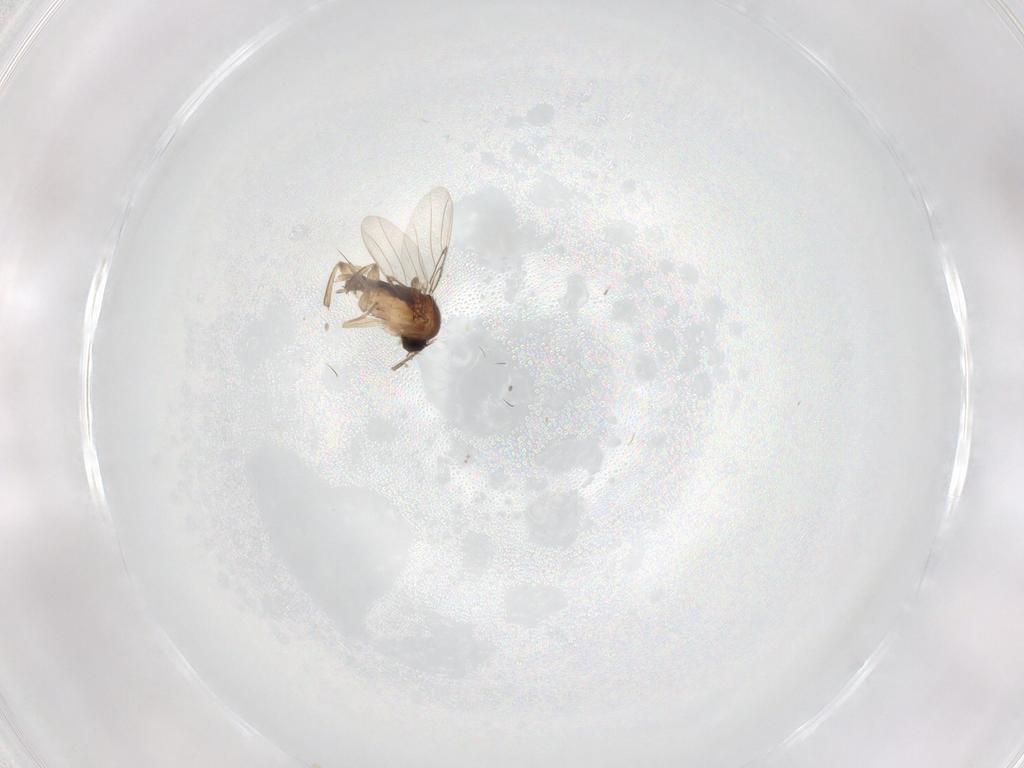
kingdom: Animalia
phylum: Arthropoda
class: Insecta
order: Diptera
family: Phoridae
